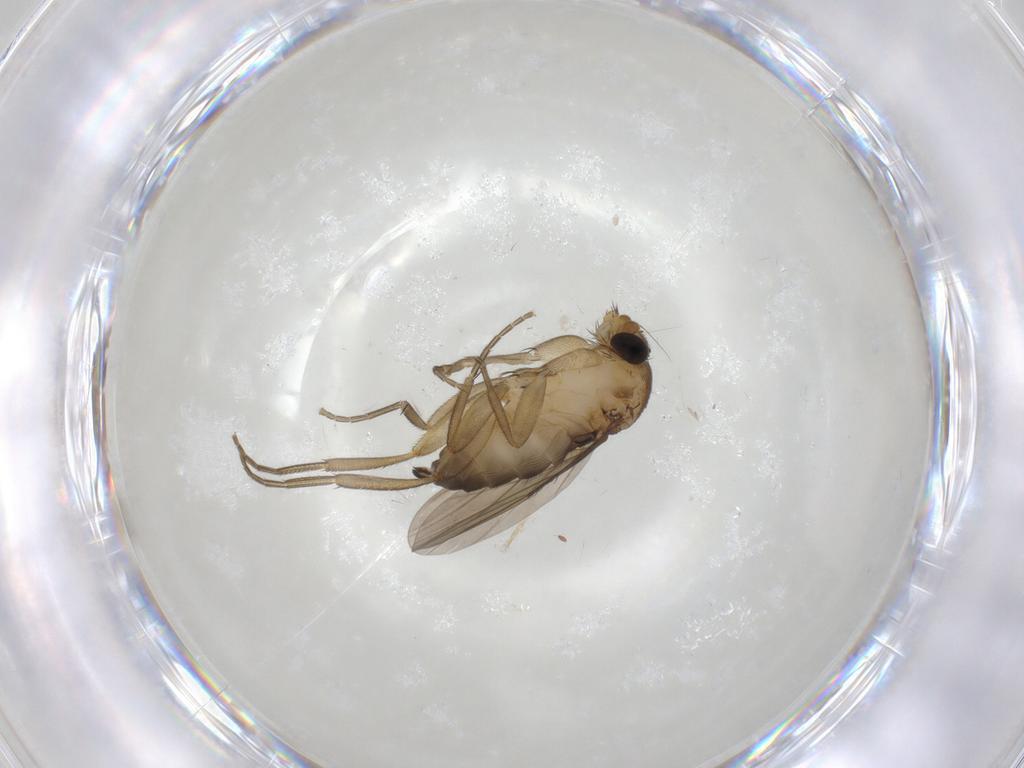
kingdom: Animalia
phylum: Arthropoda
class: Insecta
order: Diptera
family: Phoridae
